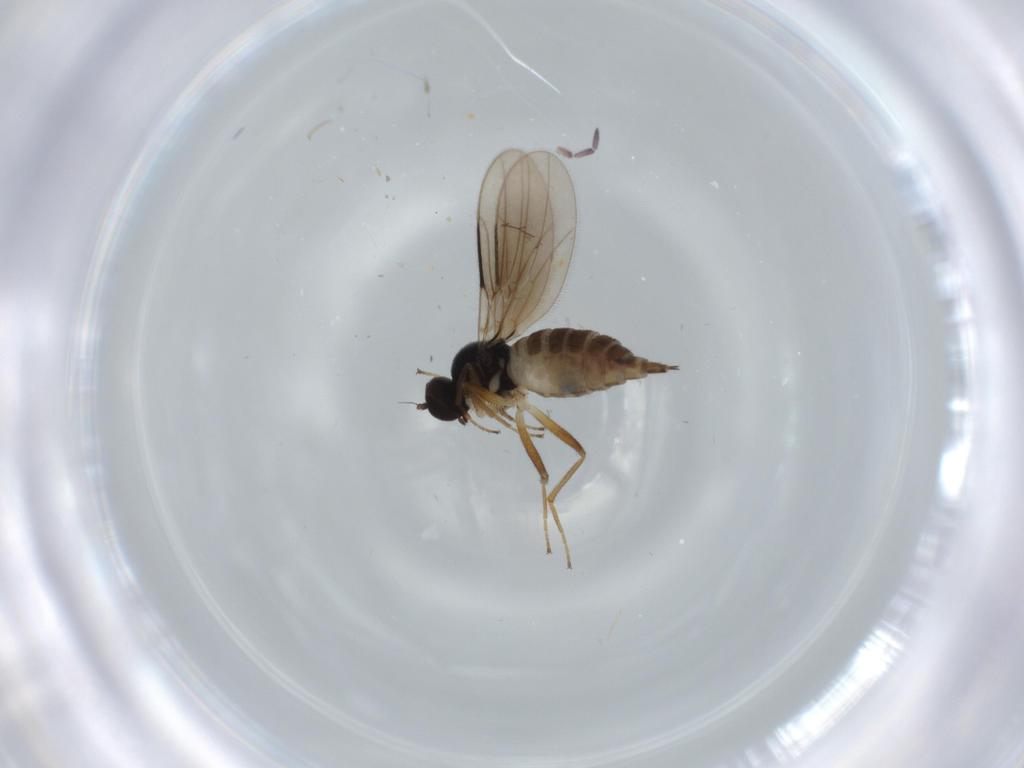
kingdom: Animalia
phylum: Arthropoda
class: Insecta
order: Diptera
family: Hybotidae
